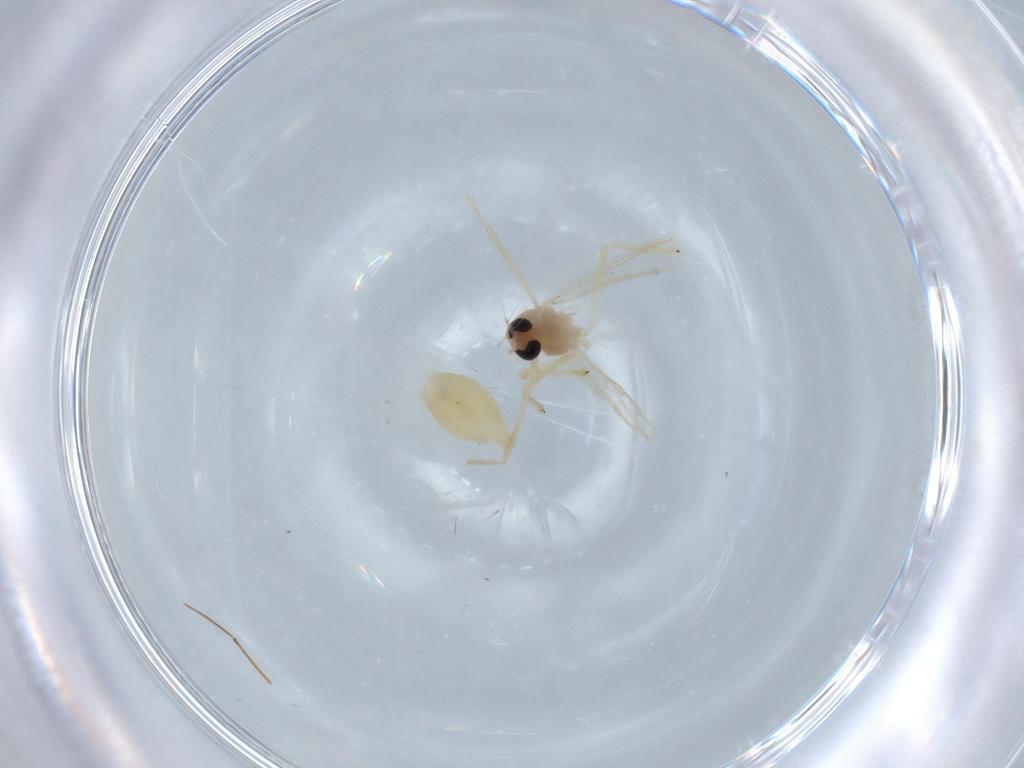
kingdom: Animalia
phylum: Arthropoda
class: Insecta
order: Diptera
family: Chironomidae
